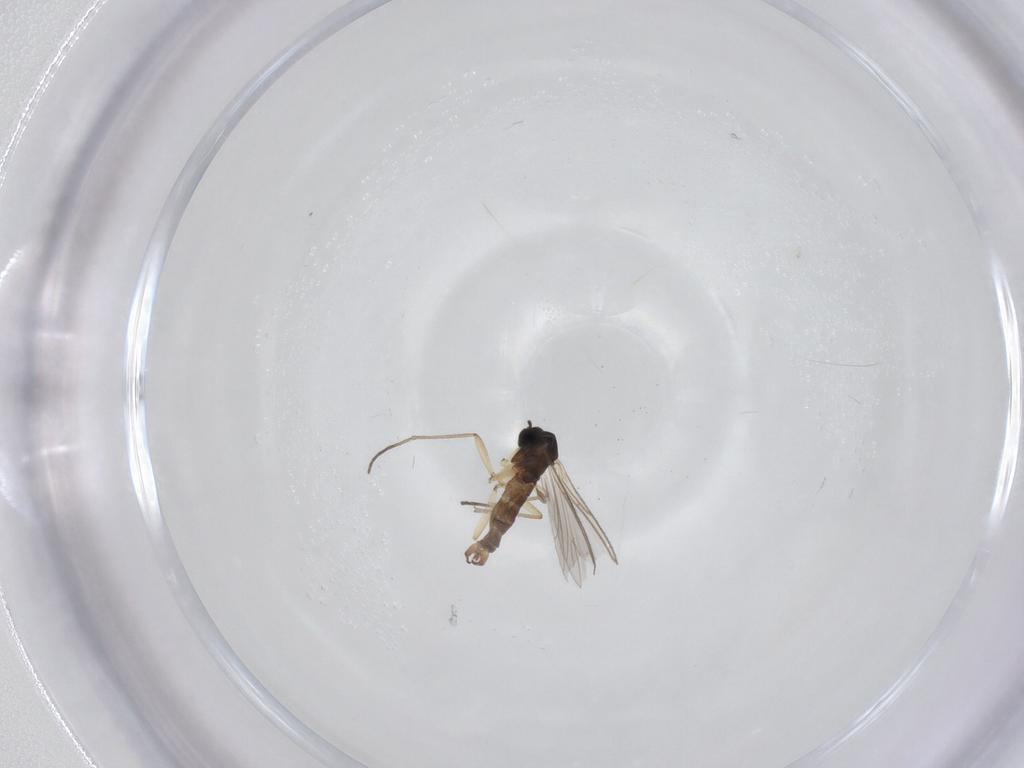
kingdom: Animalia
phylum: Arthropoda
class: Insecta
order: Diptera
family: Sciaridae
